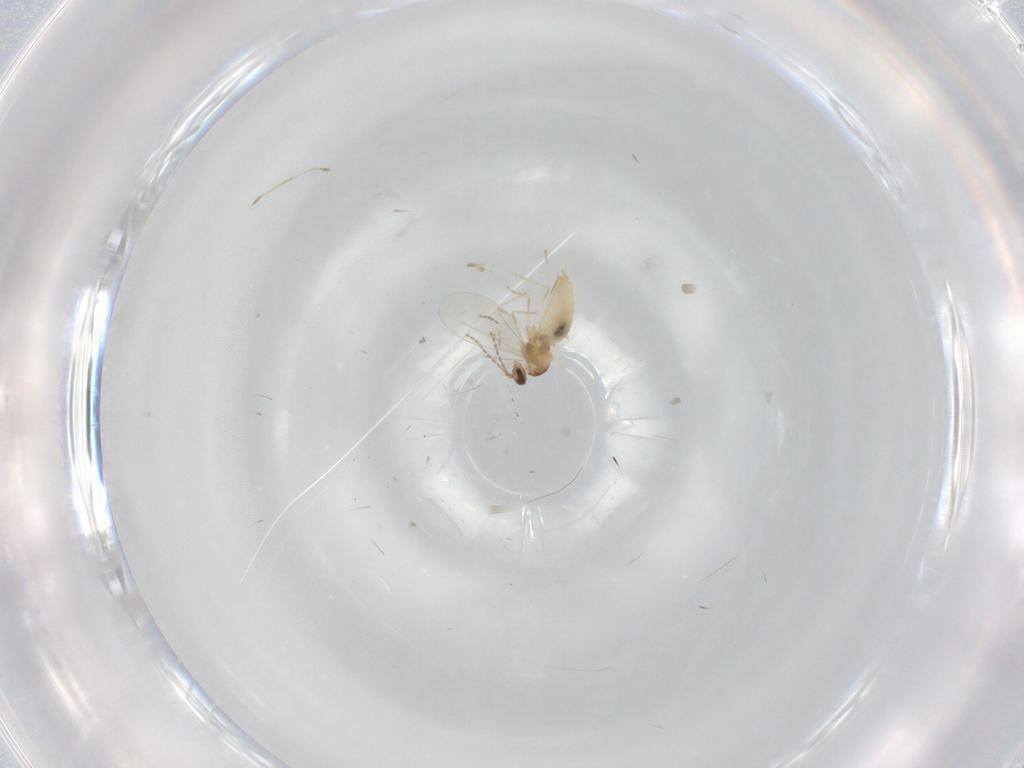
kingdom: Animalia
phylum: Arthropoda
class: Insecta
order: Diptera
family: Cecidomyiidae
